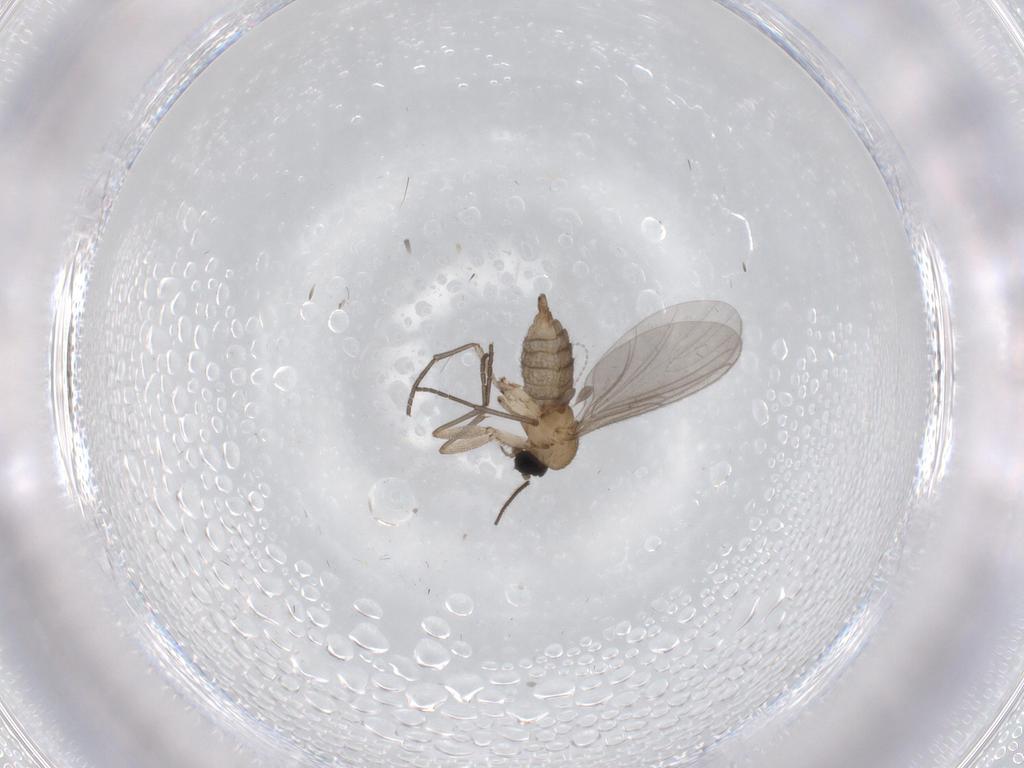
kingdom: Animalia
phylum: Arthropoda
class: Insecta
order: Diptera
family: Sciaridae
